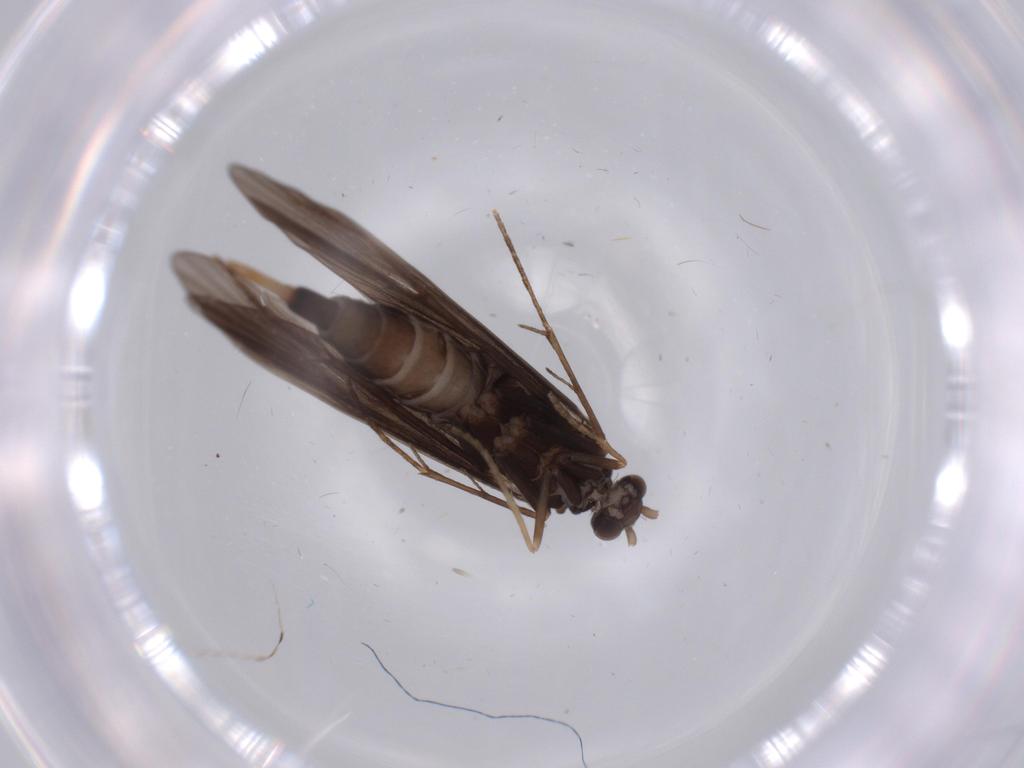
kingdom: Animalia
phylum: Arthropoda
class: Insecta
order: Trichoptera
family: Xiphocentronidae
